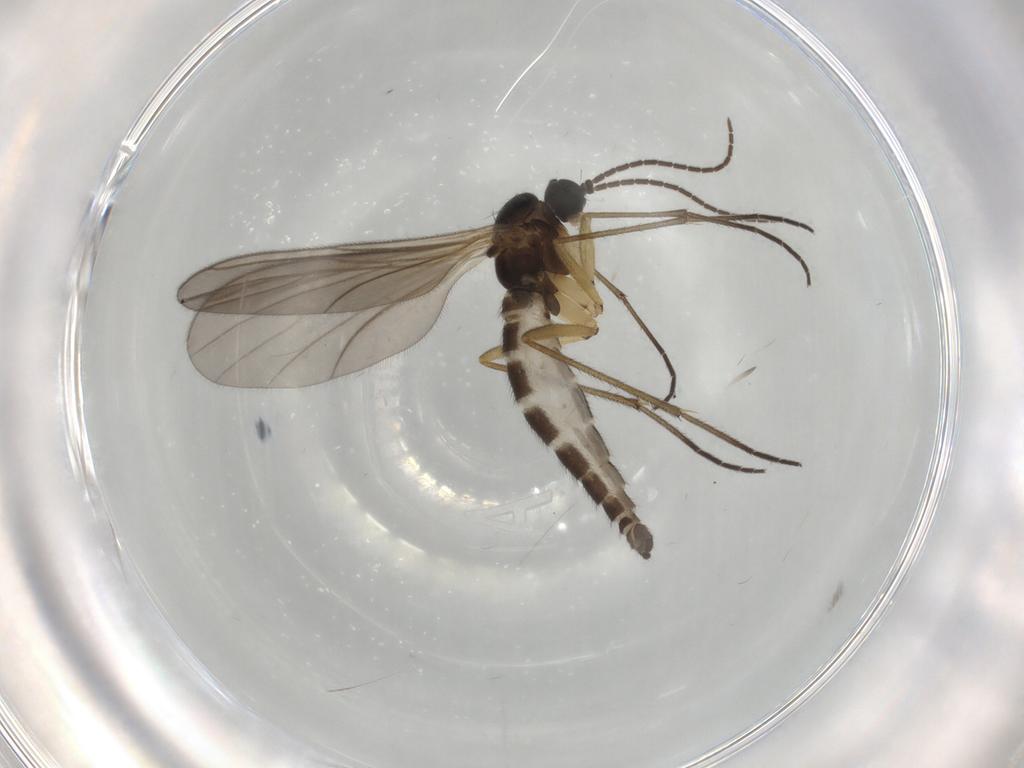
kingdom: Animalia
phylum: Arthropoda
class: Insecta
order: Diptera
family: Sciaridae
